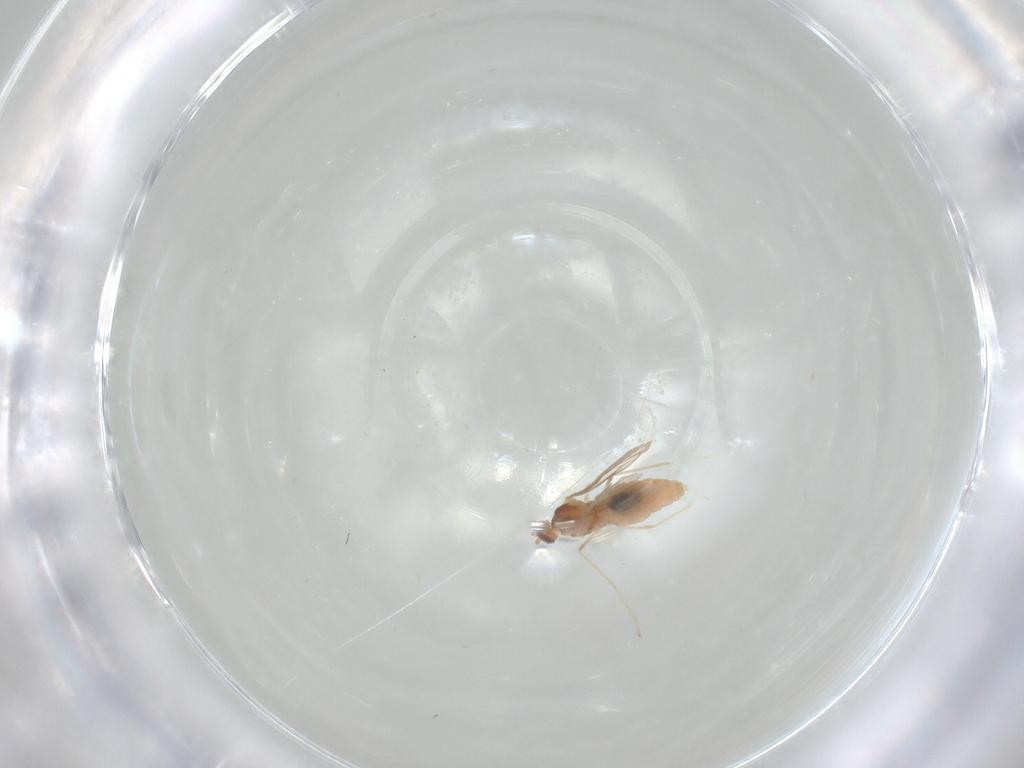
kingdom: Animalia
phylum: Arthropoda
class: Insecta
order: Diptera
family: Cecidomyiidae
